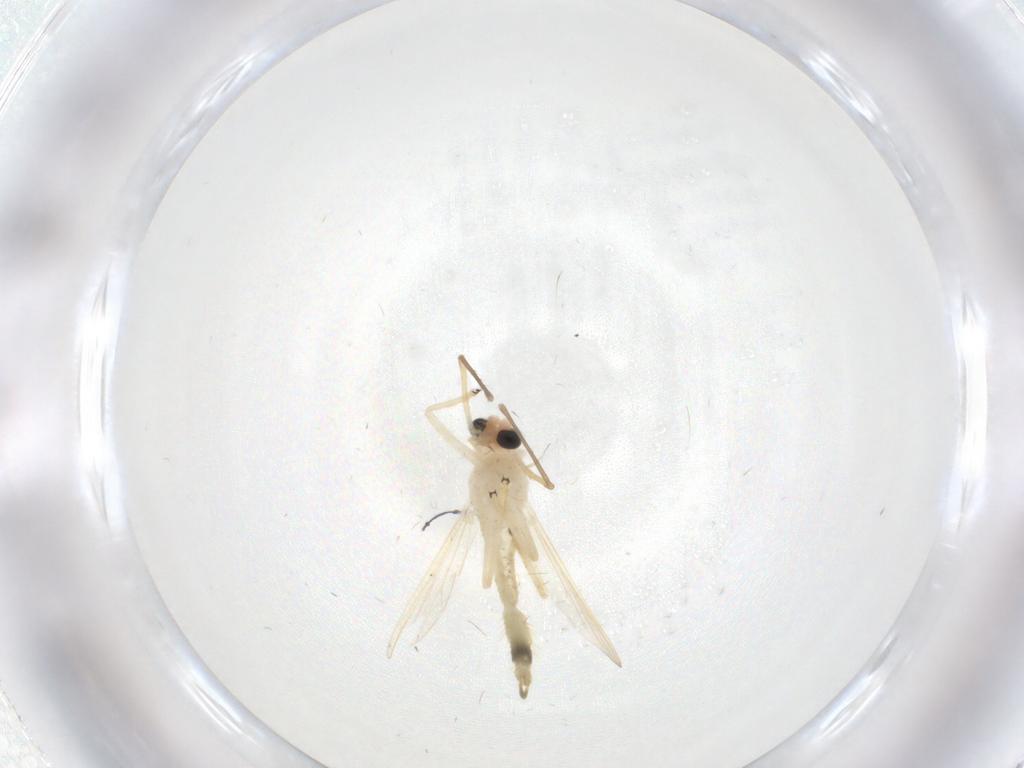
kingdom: Animalia
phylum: Arthropoda
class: Insecta
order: Diptera
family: Chironomidae
